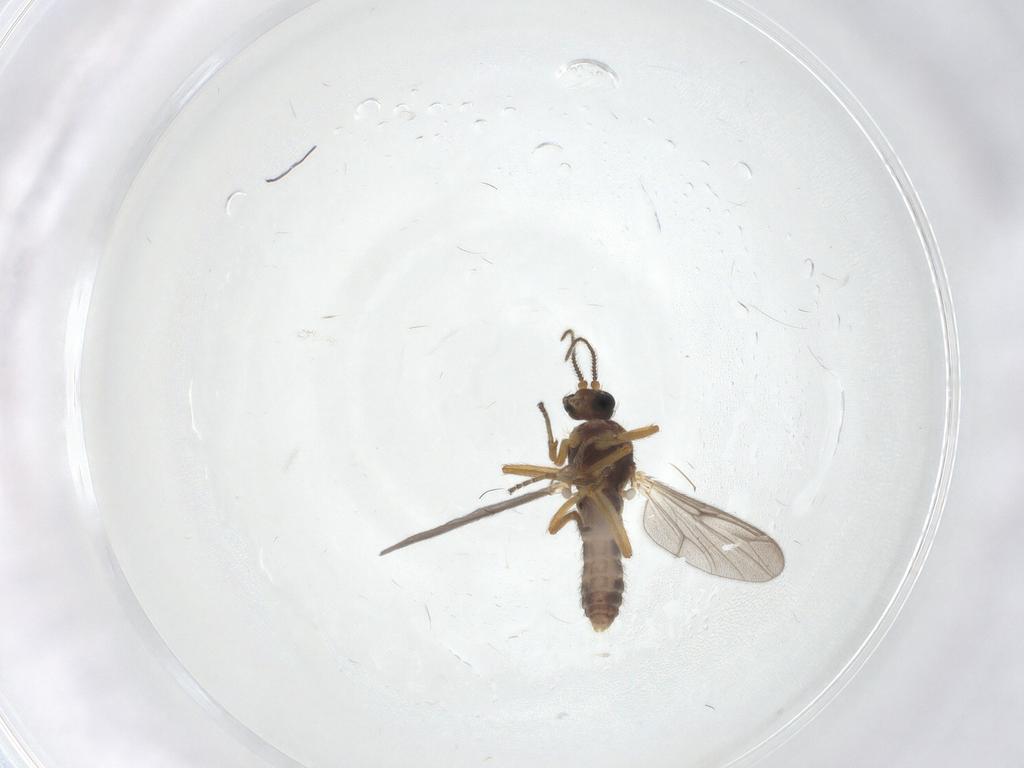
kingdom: Animalia
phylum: Arthropoda
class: Insecta
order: Diptera
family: Ceratopogonidae
